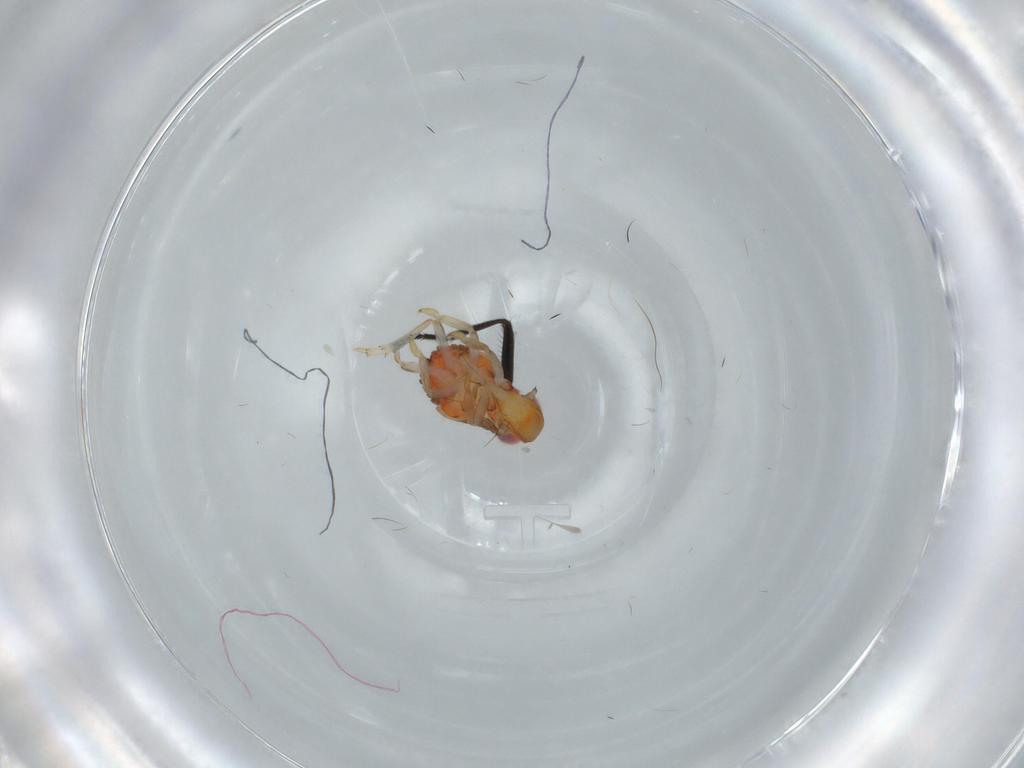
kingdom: Animalia
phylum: Arthropoda
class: Insecta
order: Hemiptera
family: Issidae
